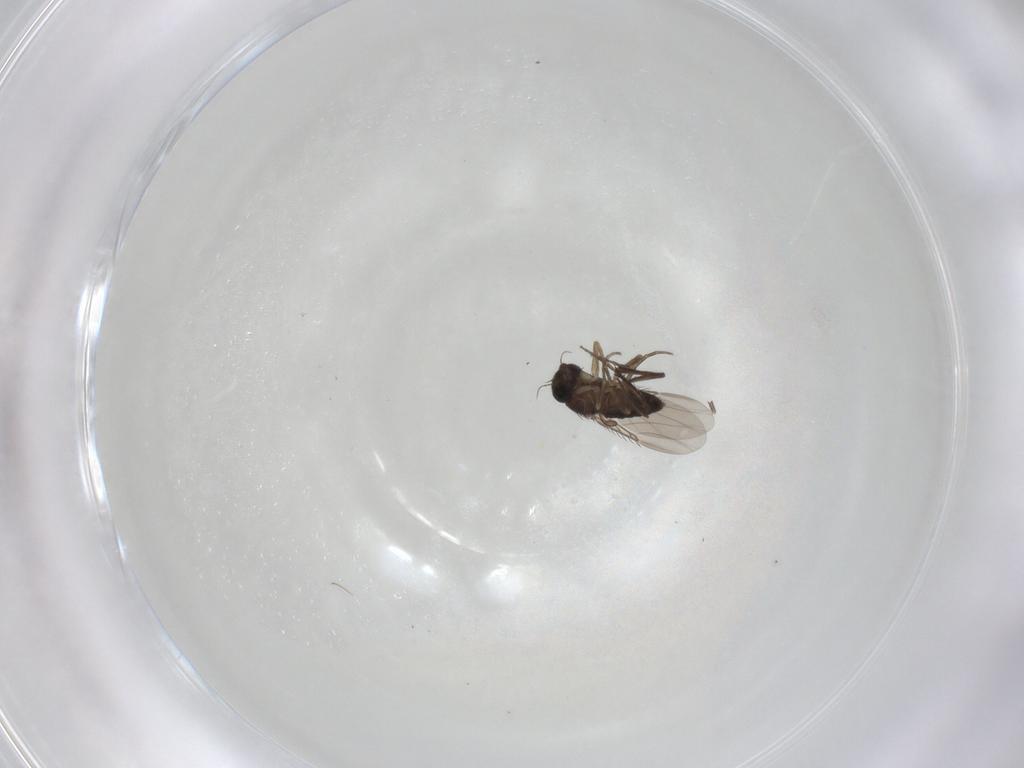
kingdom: Animalia
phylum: Arthropoda
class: Insecta
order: Diptera
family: Phoridae
